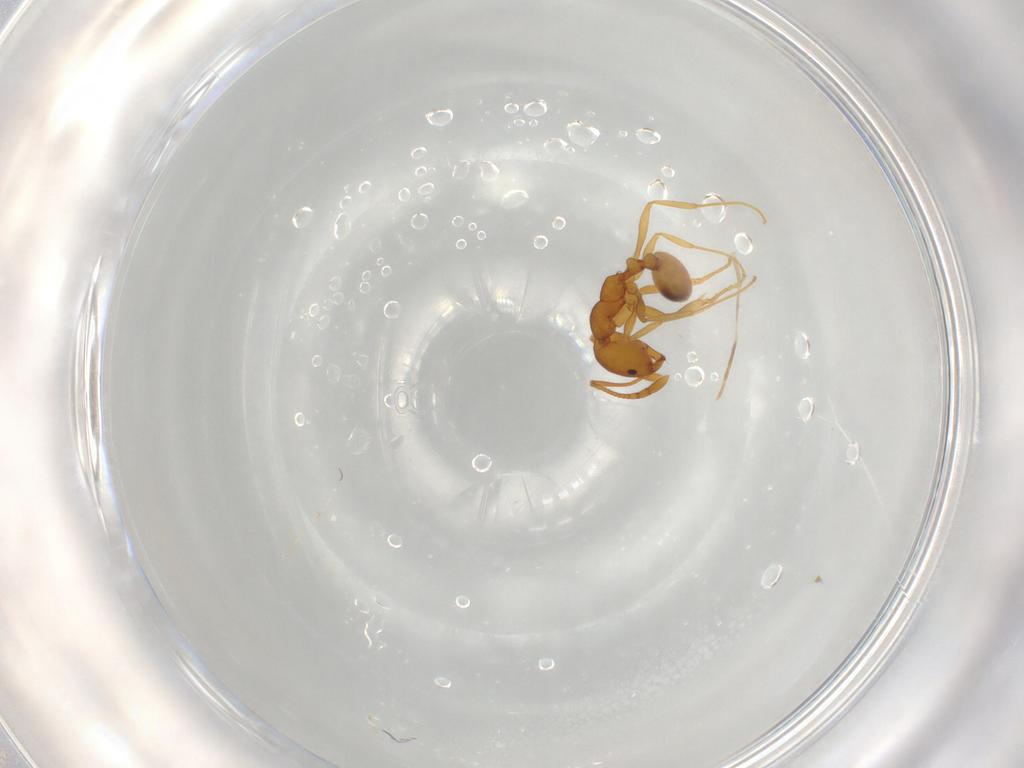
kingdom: Animalia
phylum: Arthropoda
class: Insecta
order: Hymenoptera
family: Formicidae
